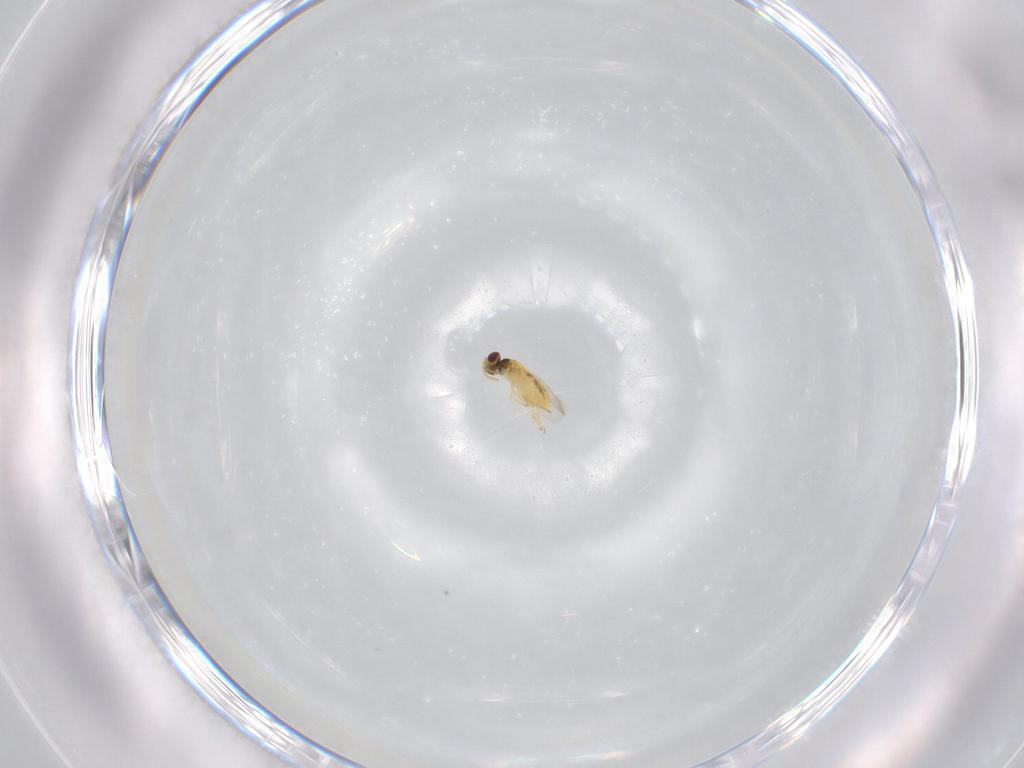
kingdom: Animalia
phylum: Arthropoda
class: Insecta
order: Hymenoptera
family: Aphelinidae
